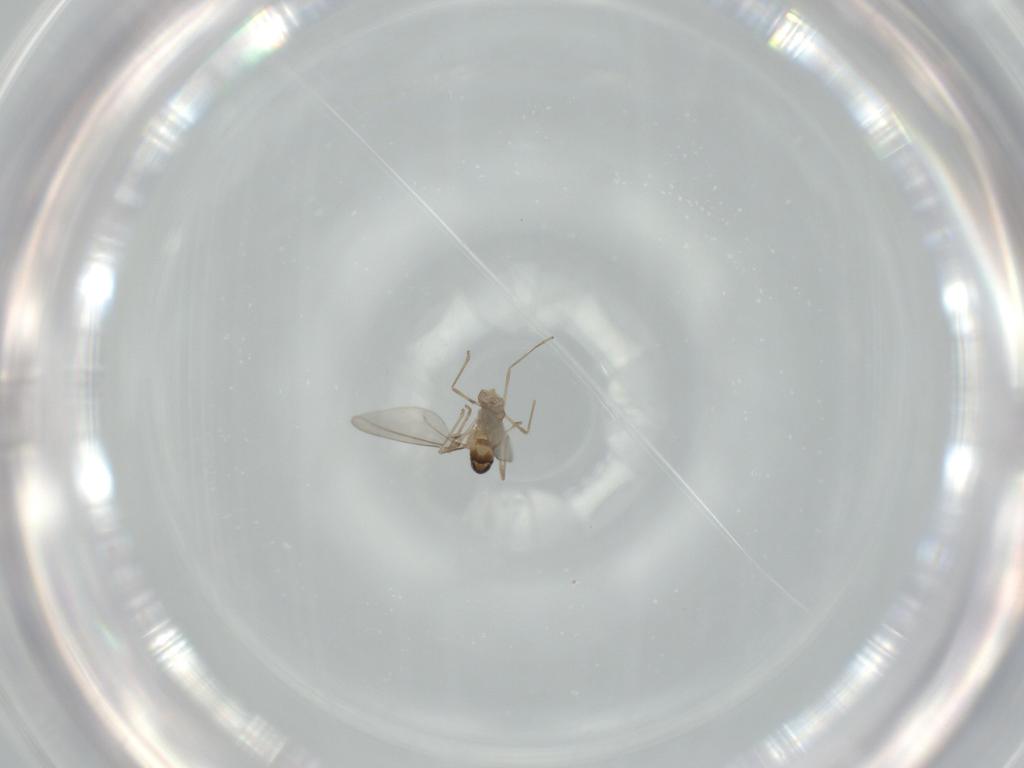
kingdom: Animalia
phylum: Arthropoda
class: Insecta
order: Diptera
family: Cecidomyiidae
